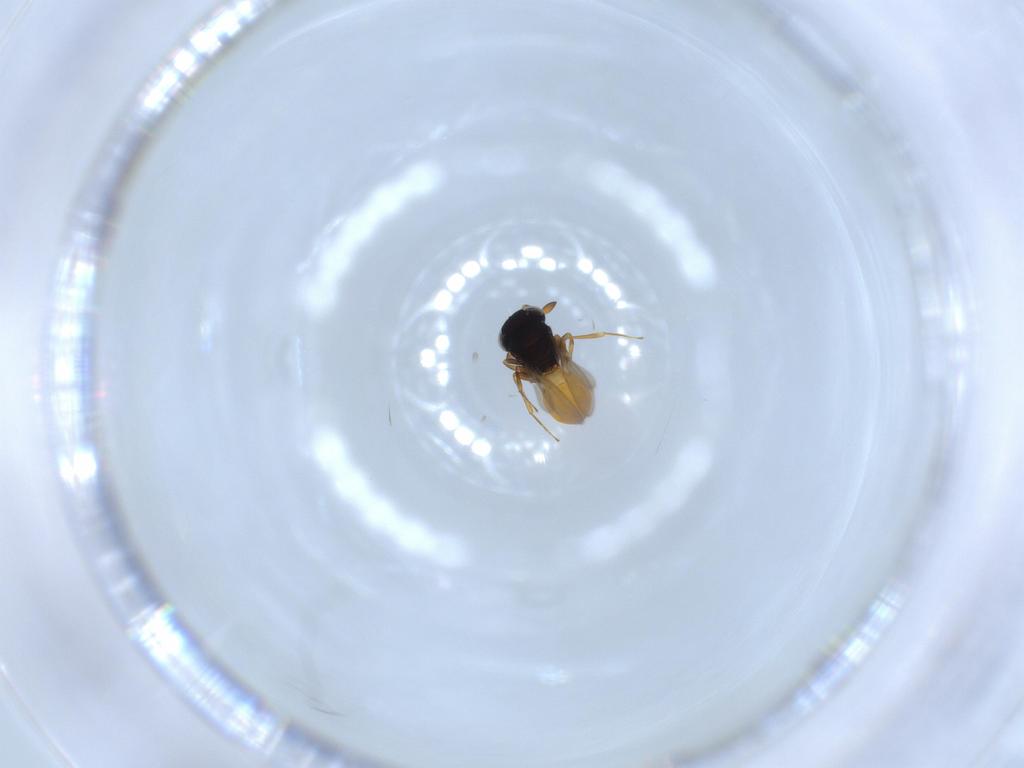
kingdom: Animalia
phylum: Arthropoda
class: Insecta
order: Hymenoptera
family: Scelionidae
